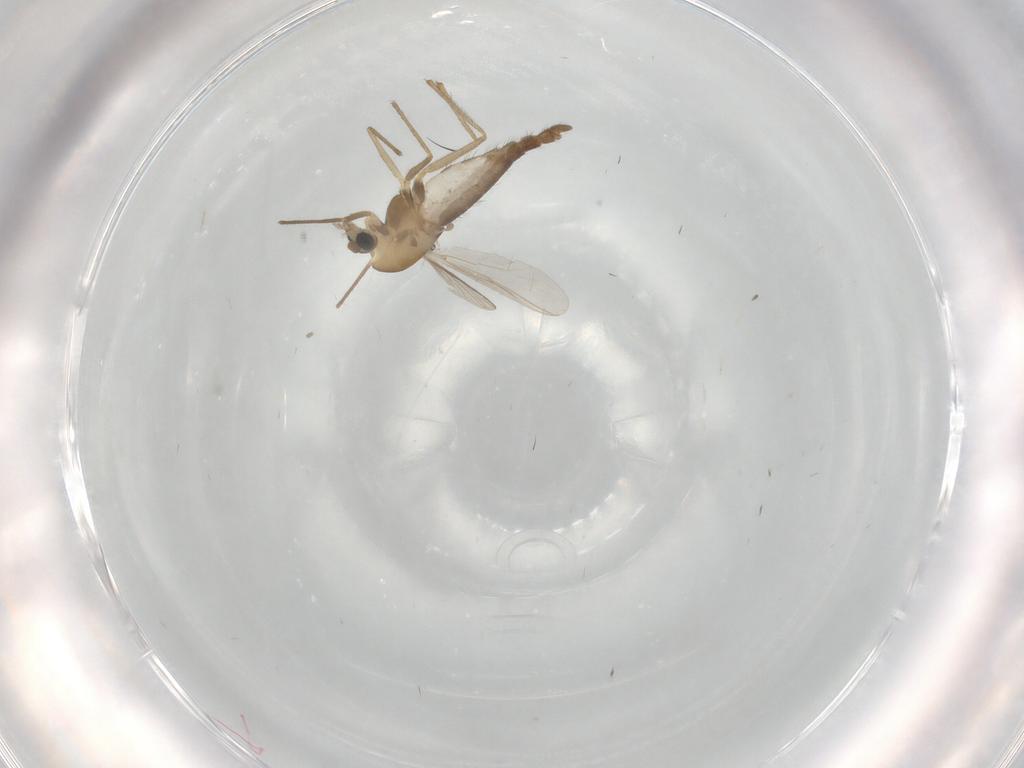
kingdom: Animalia
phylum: Arthropoda
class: Insecta
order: Diptera
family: Chironomidae
